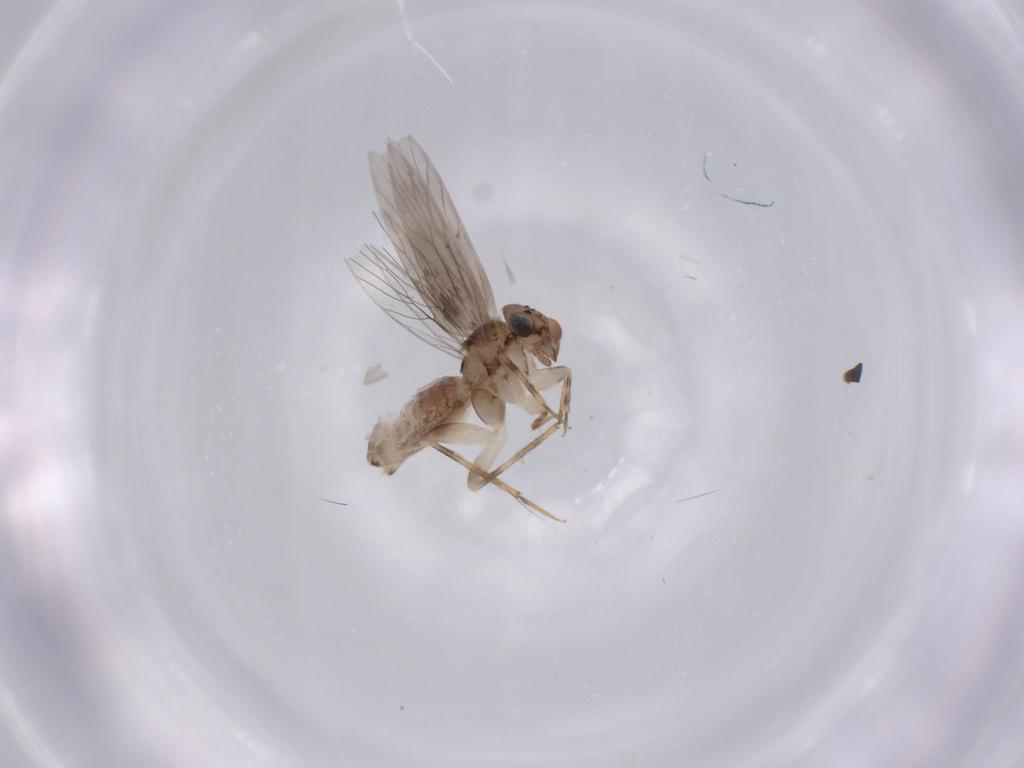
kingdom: Animalia
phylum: Arthropoda
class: Insecta
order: Psocodea
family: Lepidopsocidae
